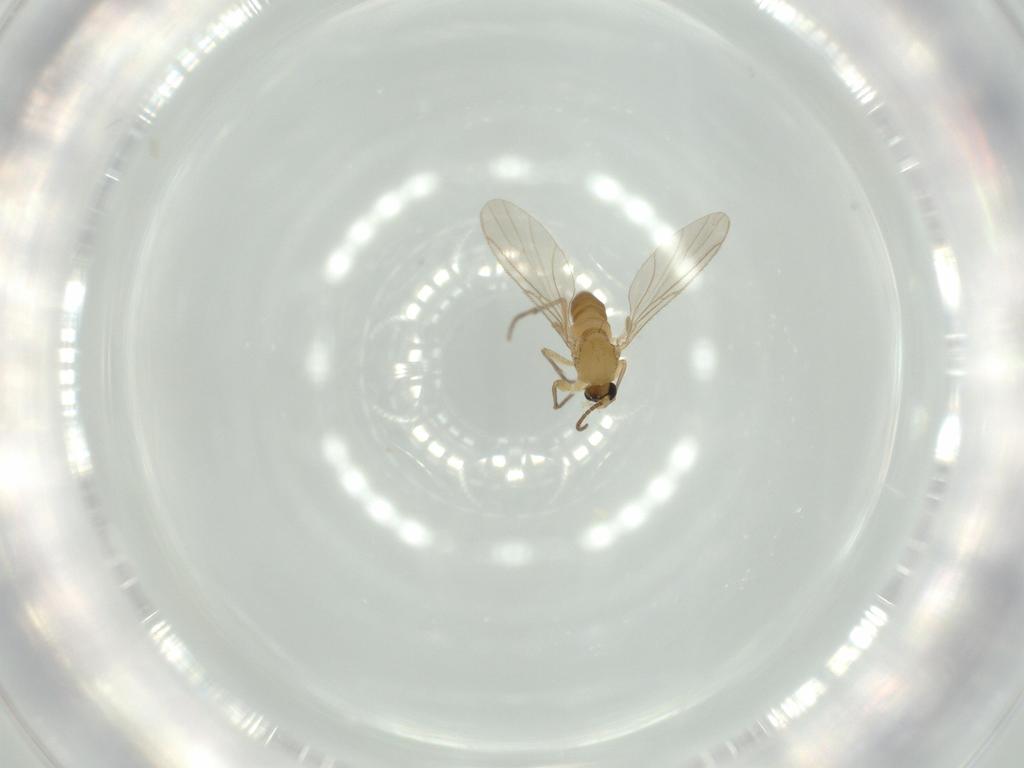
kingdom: Animalia
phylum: Arthropoda
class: Insecta
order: Diptera
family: Sciaridae
